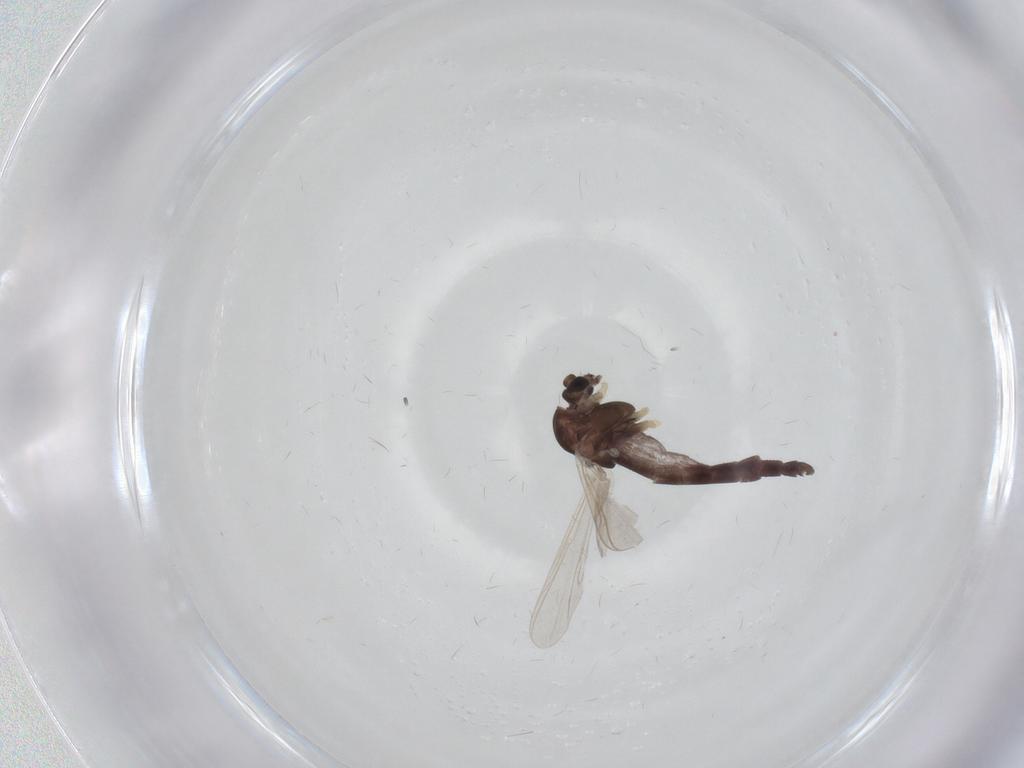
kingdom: Animalia
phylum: Arthropoda
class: Insecta
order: Diptera
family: Chironomidae
